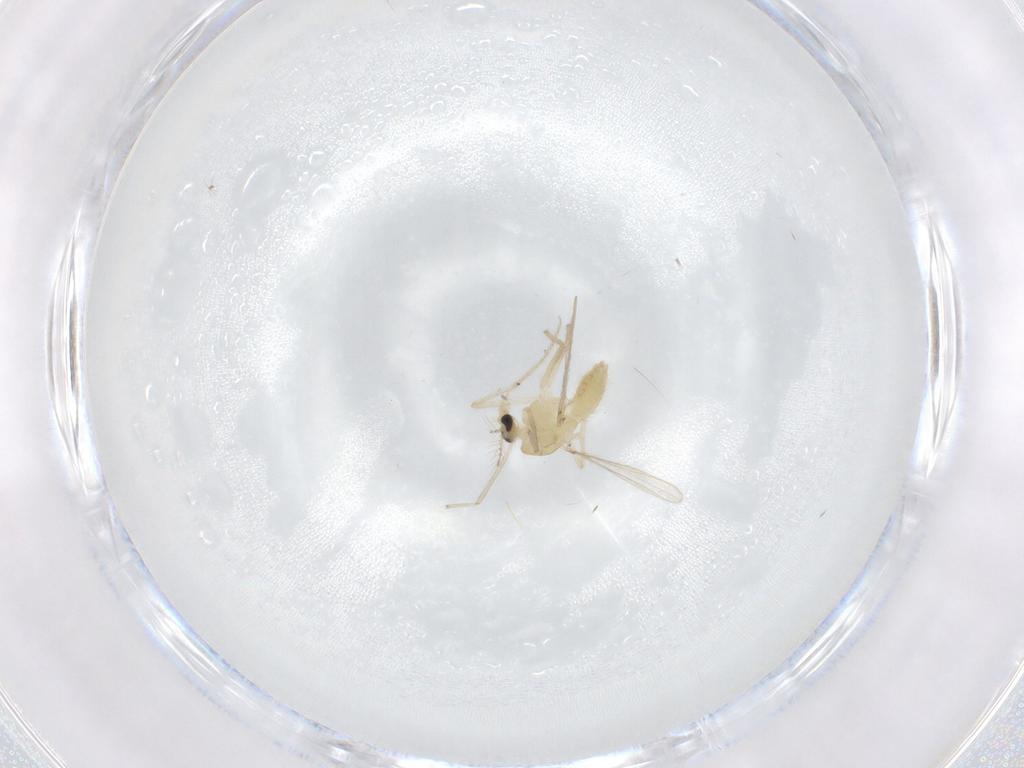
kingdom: Animalia
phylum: Arthropoda
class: Insecta
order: Diptera
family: Chironomidae
